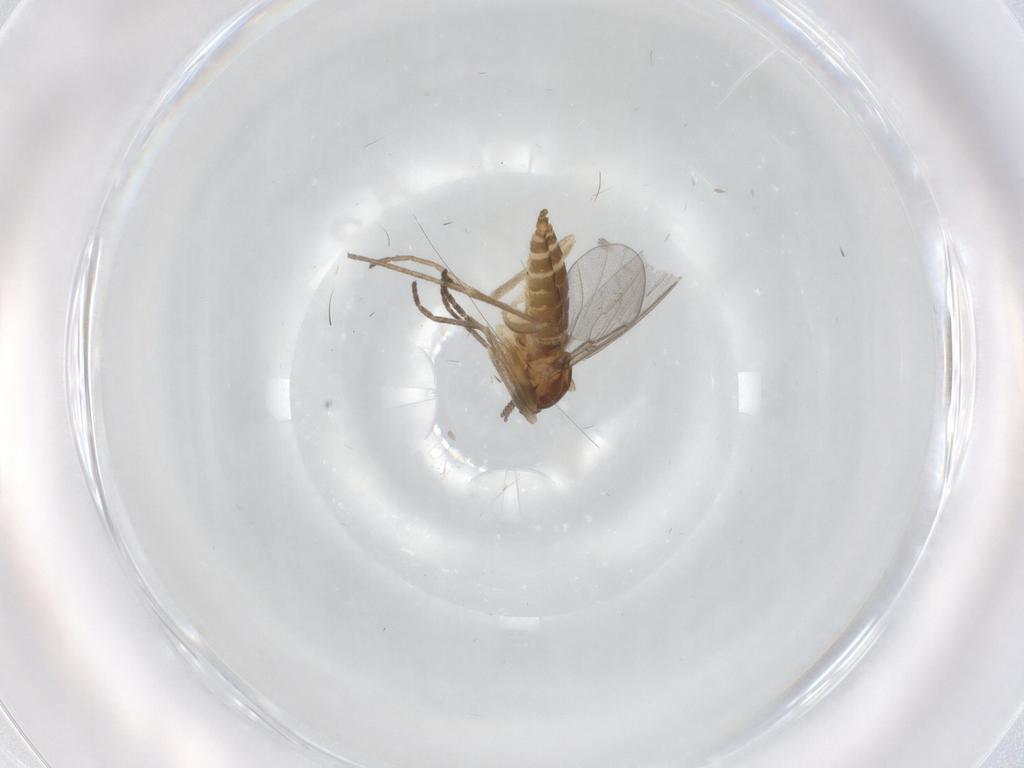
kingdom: Animalia
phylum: Arthropoda
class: Insecta
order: Diptera
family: Cecidomyiidae
